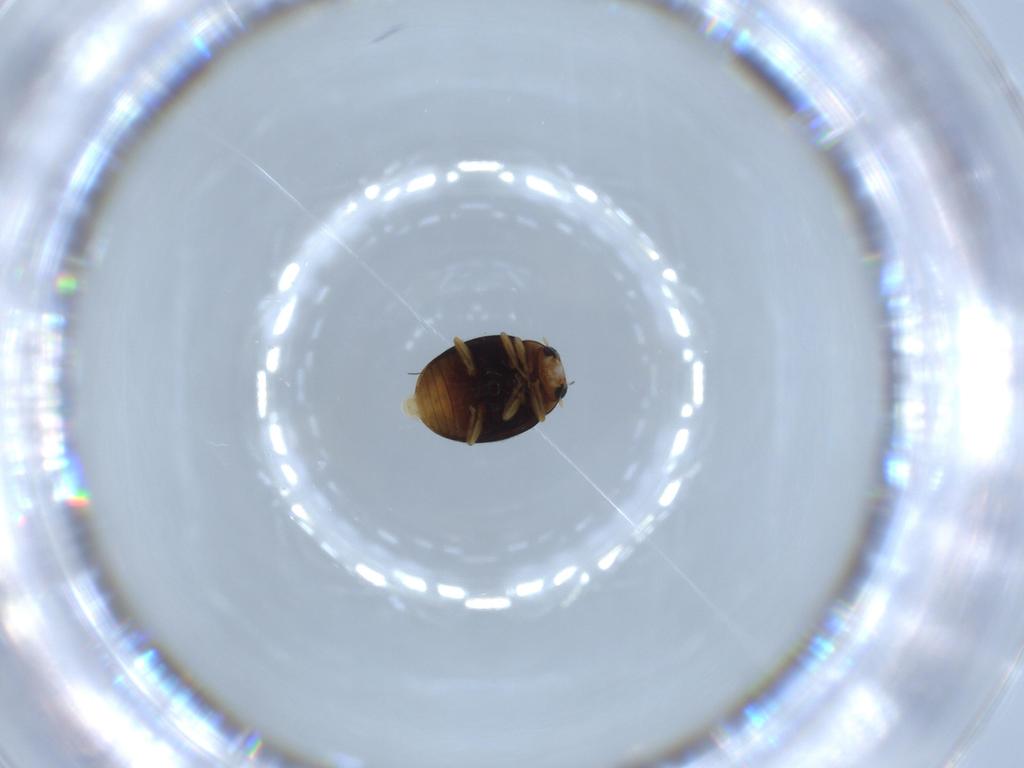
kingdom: Animalia
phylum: Arthropoda
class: Insecta
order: Coleoptera
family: Coccinellidae
